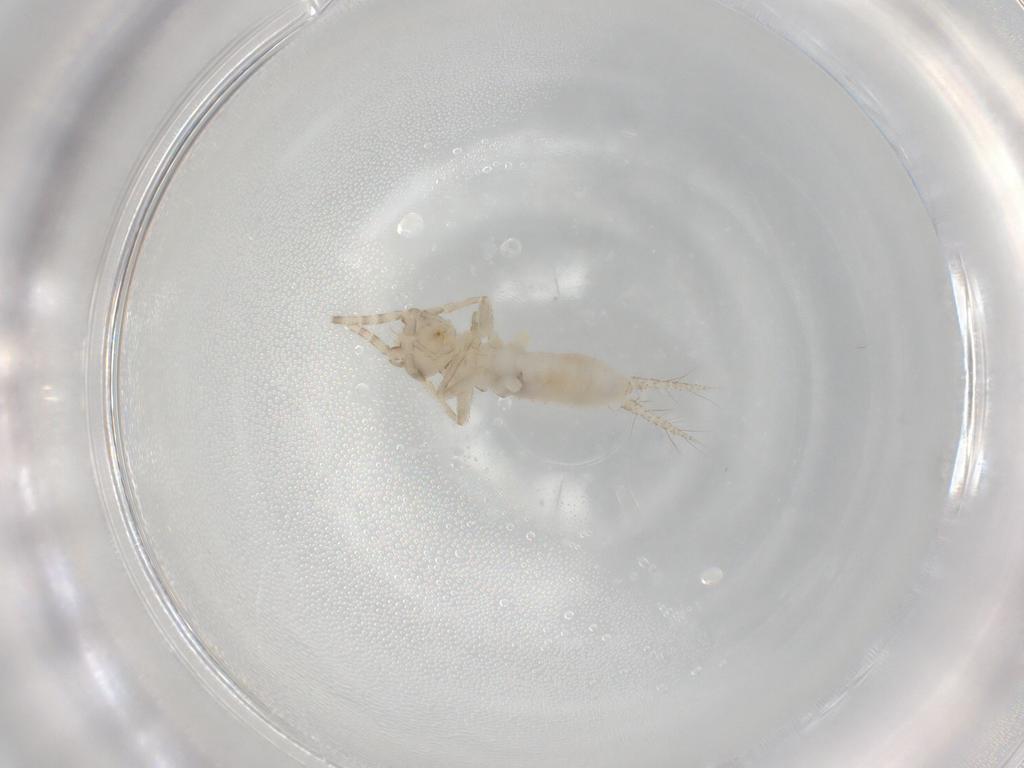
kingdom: Animalia
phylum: Arthropoda
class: Insecta
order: Orthoptera
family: Trigonidiidae
